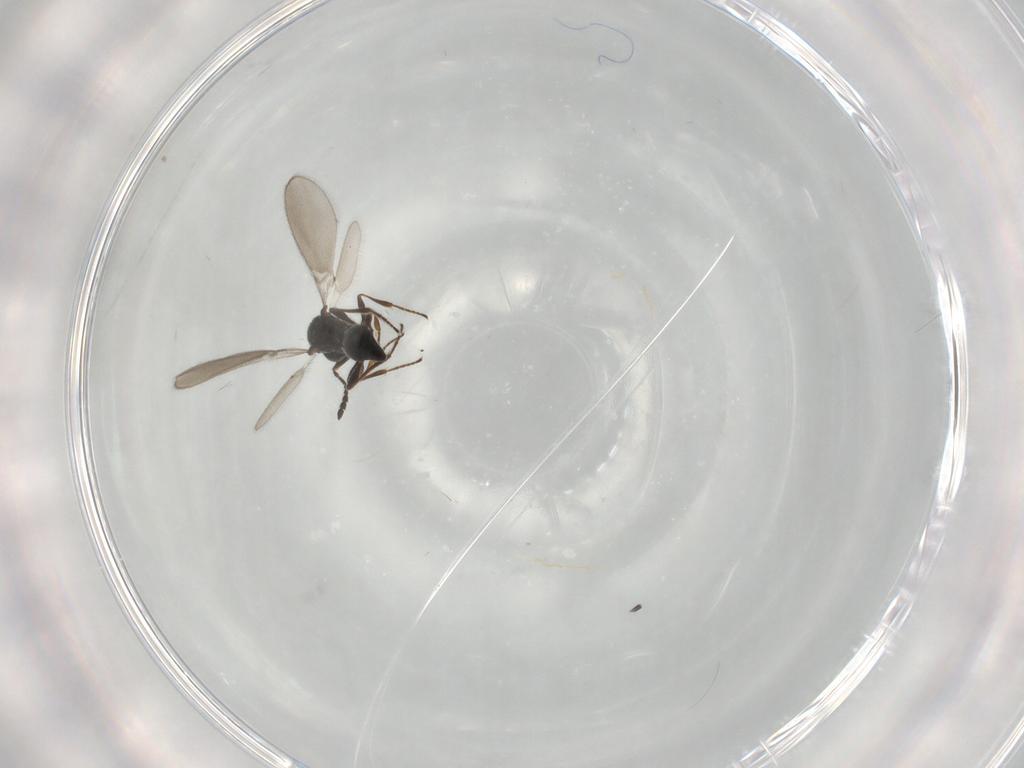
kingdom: Animalia
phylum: Arthropoda
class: Insecta
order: Hymenoptera
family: Platygastridae
